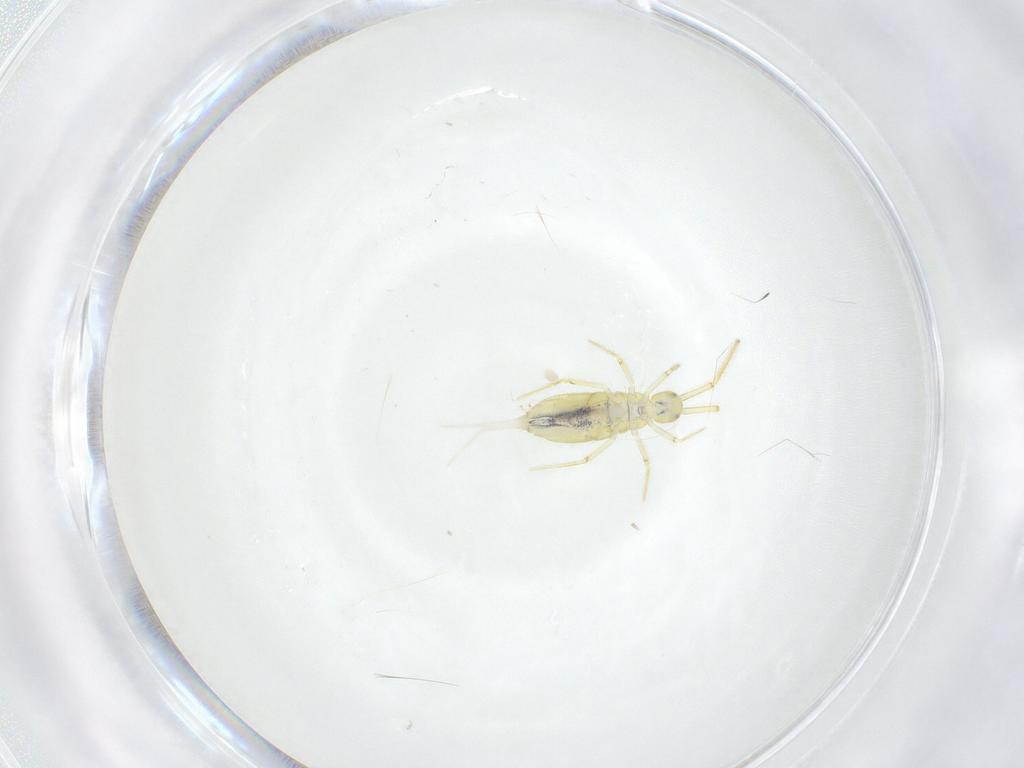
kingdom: Animalia
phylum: Arthropoda
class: Collembola
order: Entomobryomorpha
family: Paronellidae
